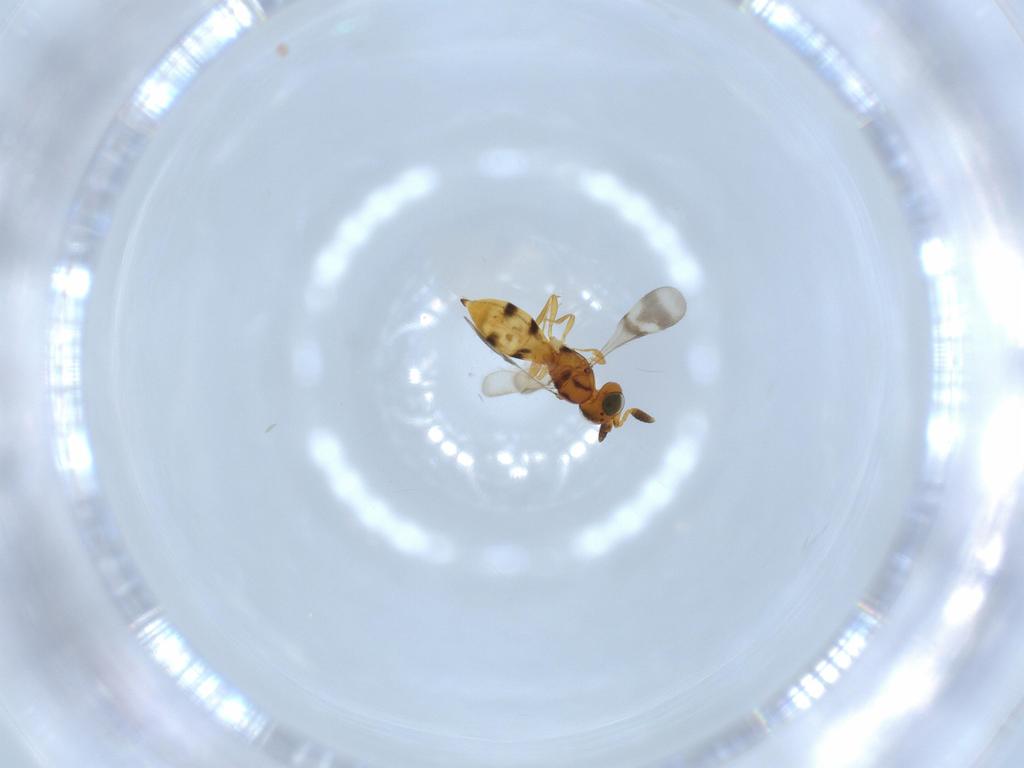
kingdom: Animalia
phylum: Arthropoda
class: Insecta
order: Hymenoptera
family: Scelionidae
